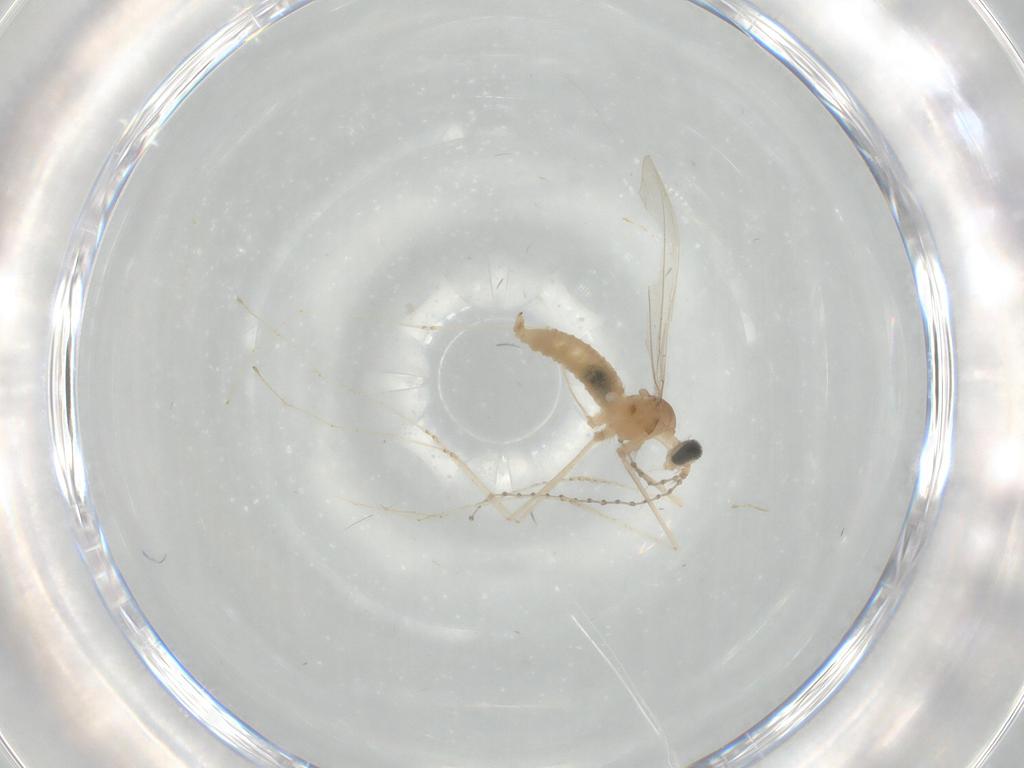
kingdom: Animalia
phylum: Arthropoda
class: Insecta
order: Diptera
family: Cecidomyiidae
